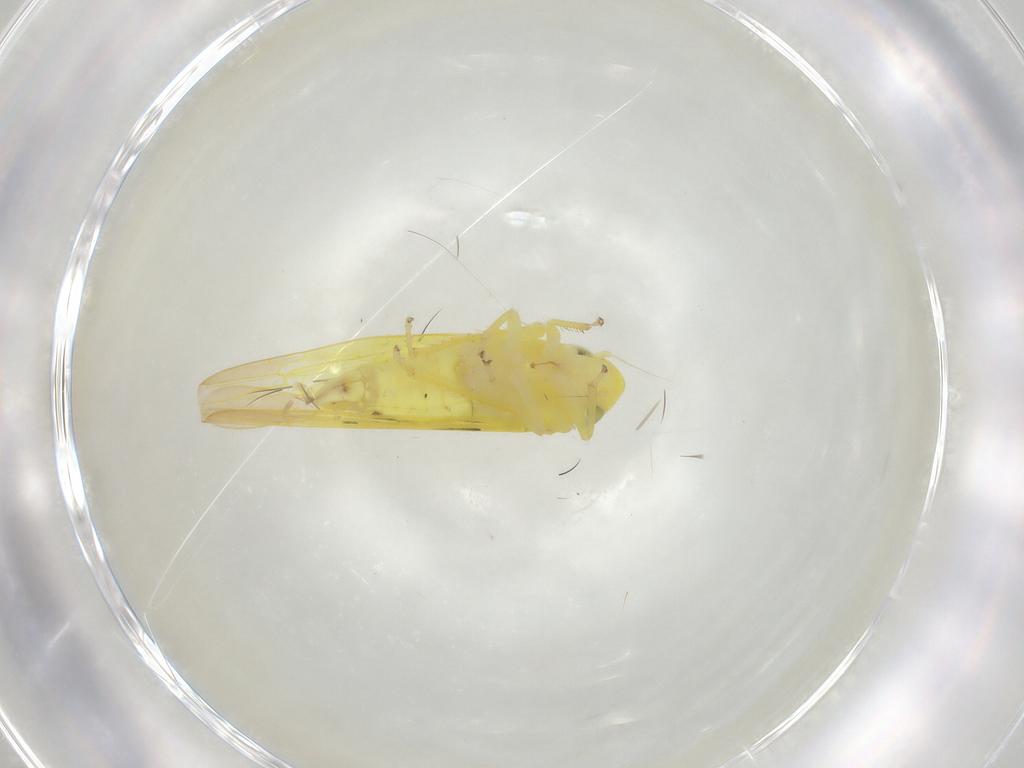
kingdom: Animalia
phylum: Arthropoda
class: Insecta
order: Hemiptera
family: Cicadellidae
